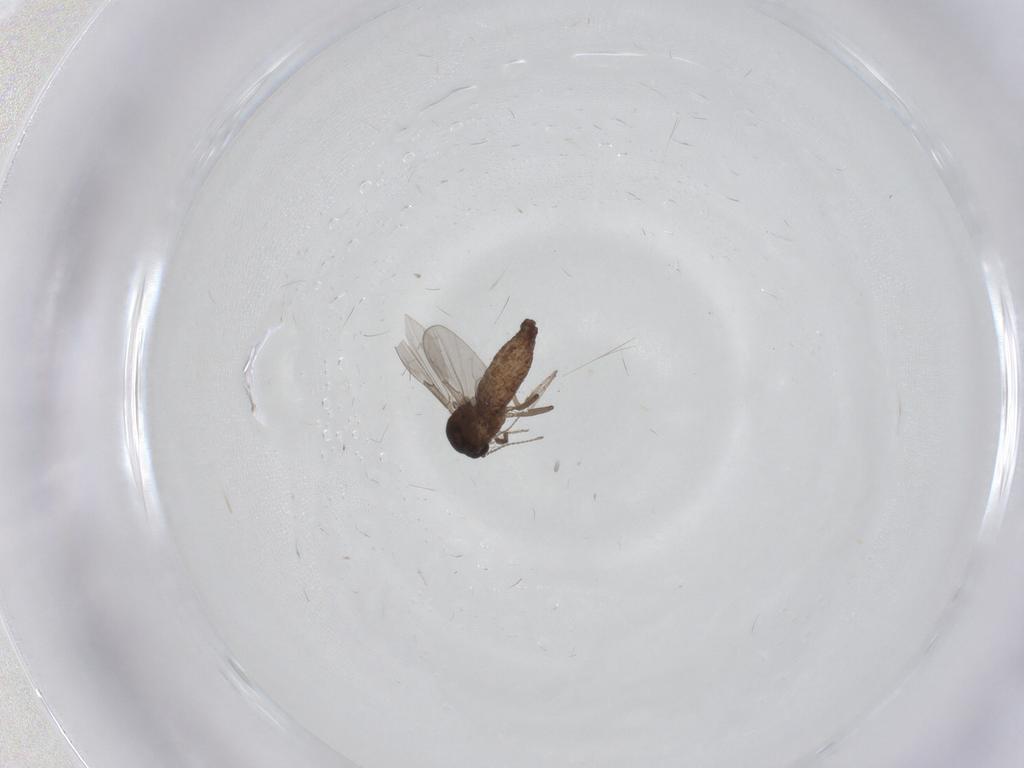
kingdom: Animalia
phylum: Arthropoda
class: Insecta
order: Diptera
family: Ceratopogonidae
